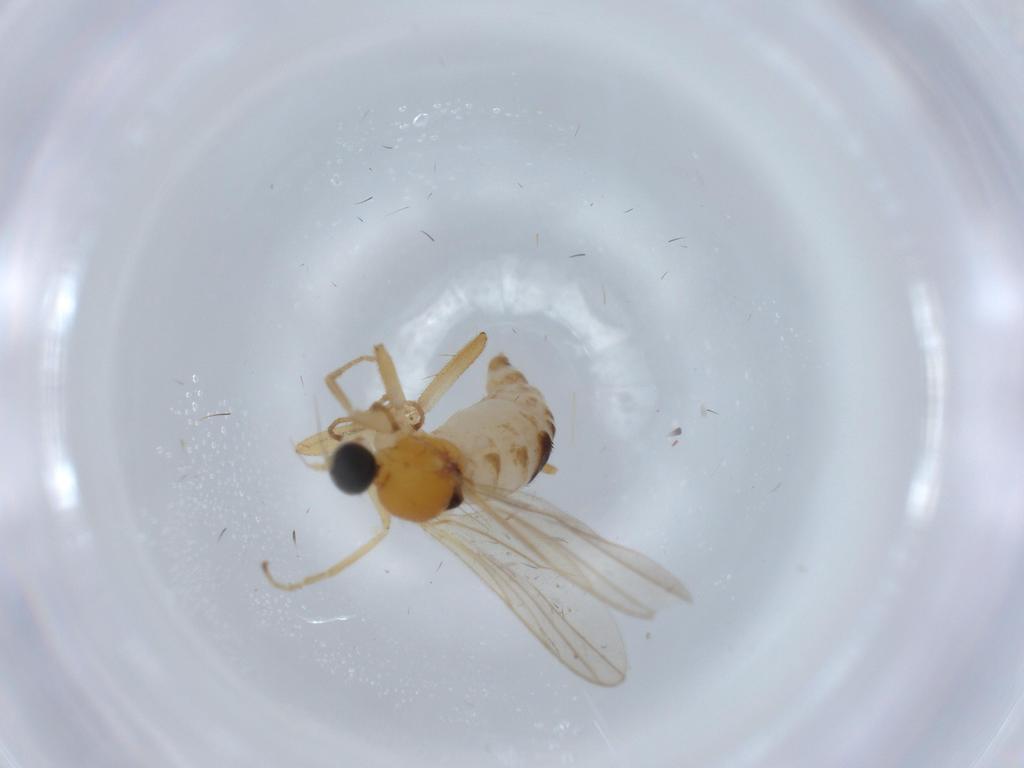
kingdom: Animalia
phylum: Arthropoda
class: Insecta
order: Diptera
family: Hybotidae
